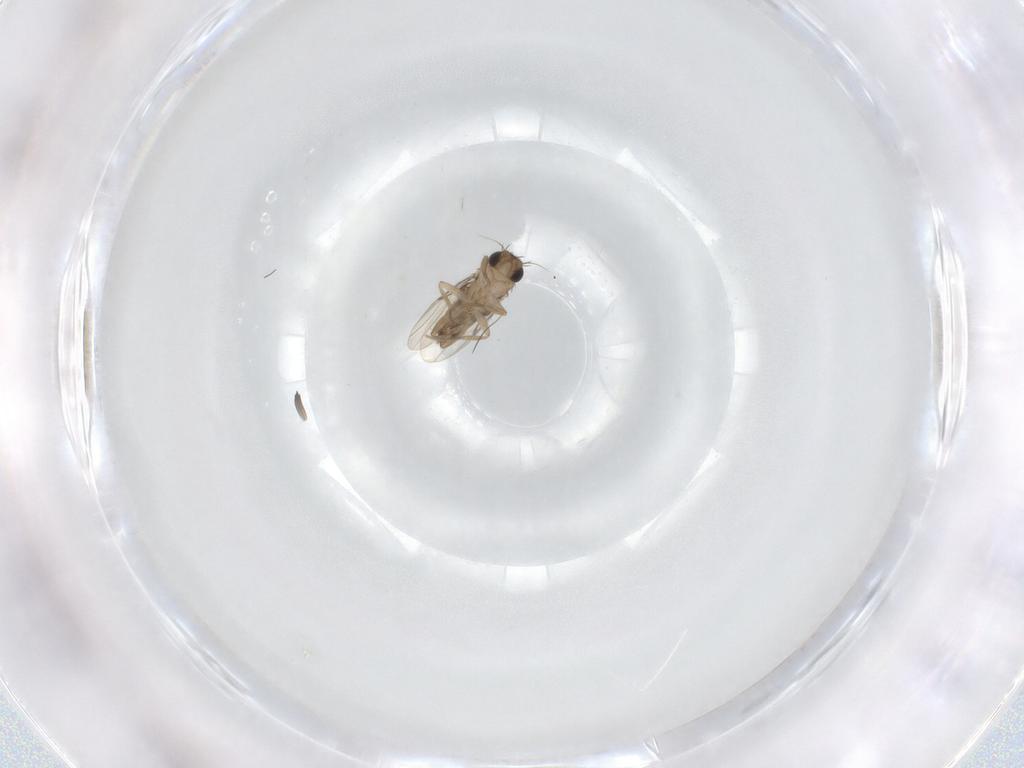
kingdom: Animalia
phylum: Arthropoda
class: Insecta
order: Diptera
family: Phoridae
